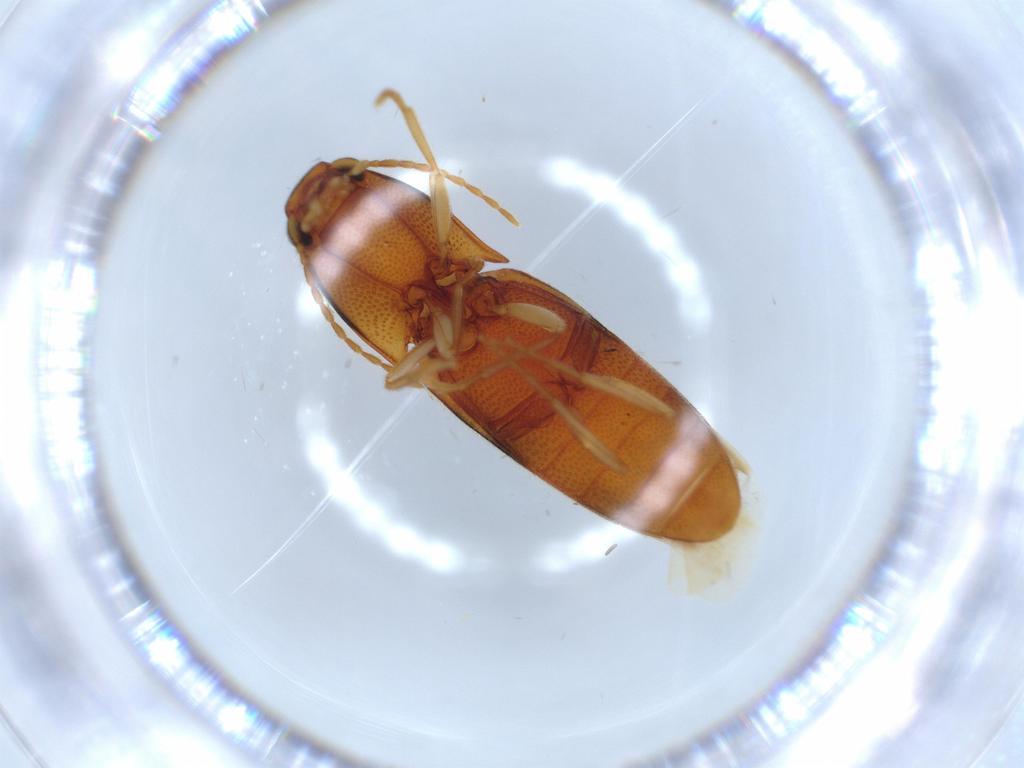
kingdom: Animalia
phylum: Arthropoda
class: Insecta
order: Coleoptera
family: Elateridae
